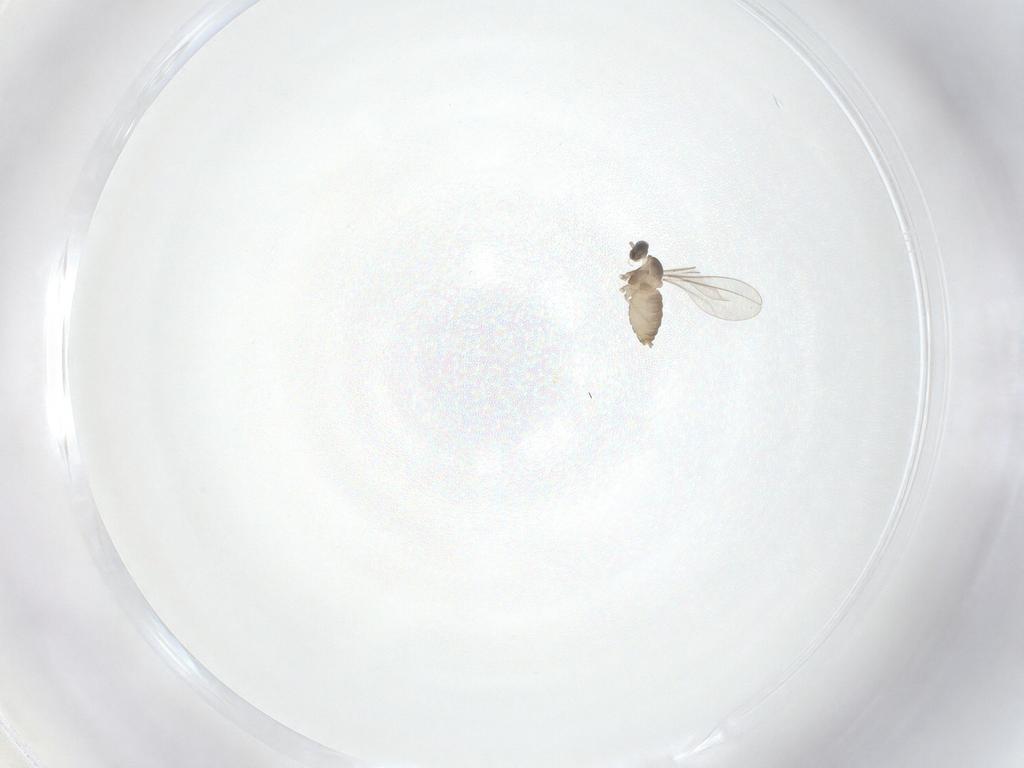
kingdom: Animalia
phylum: Arthropoda
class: Insecta
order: Diptera
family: Cecidomyiidae
